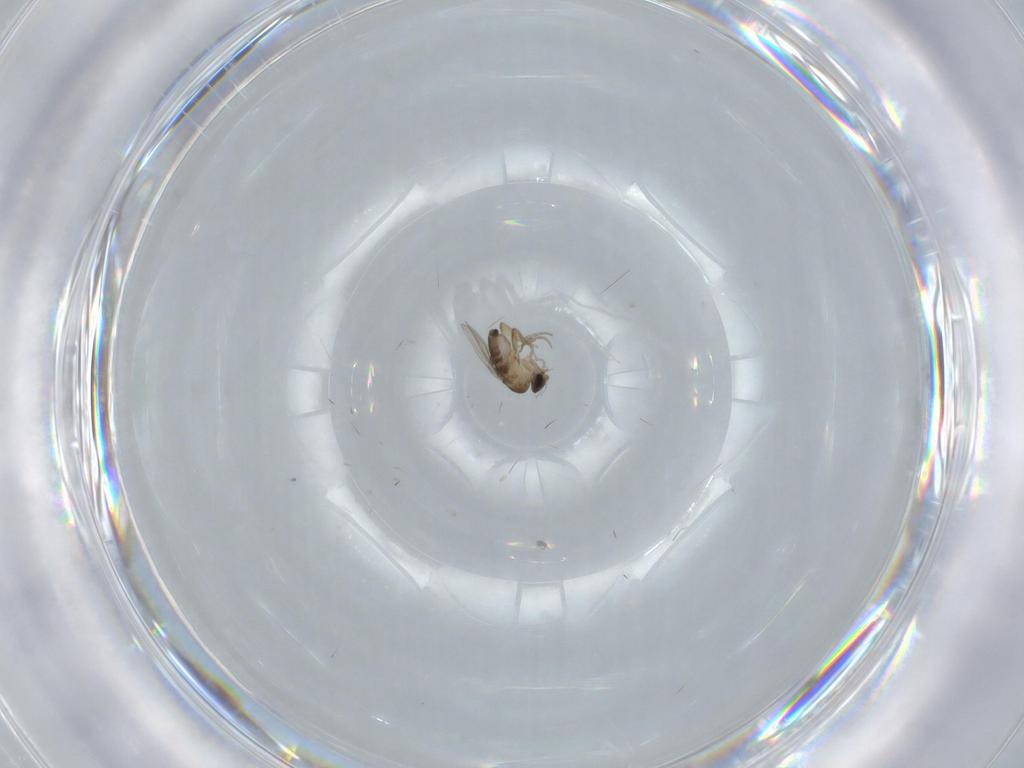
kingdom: Animalia
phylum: Arthropoda
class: Insecta
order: Diptera
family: Phoridae
